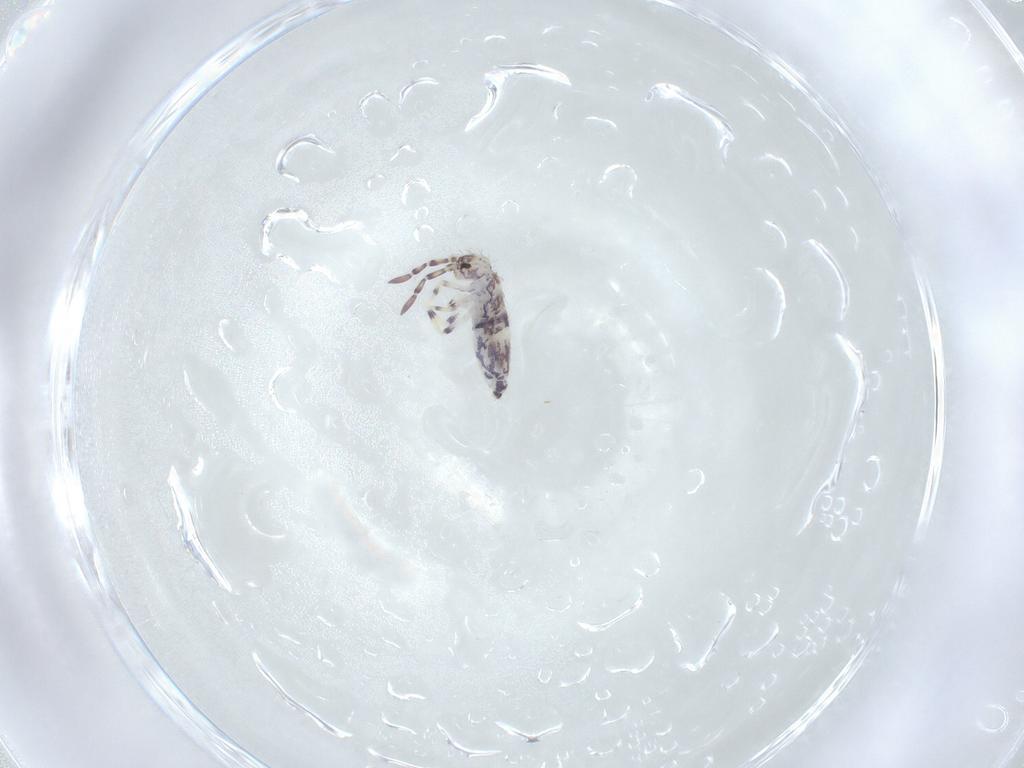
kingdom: Animalia
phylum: Arthropoda
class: Collembola
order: Entomobryomorpha
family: Entomobryidae
